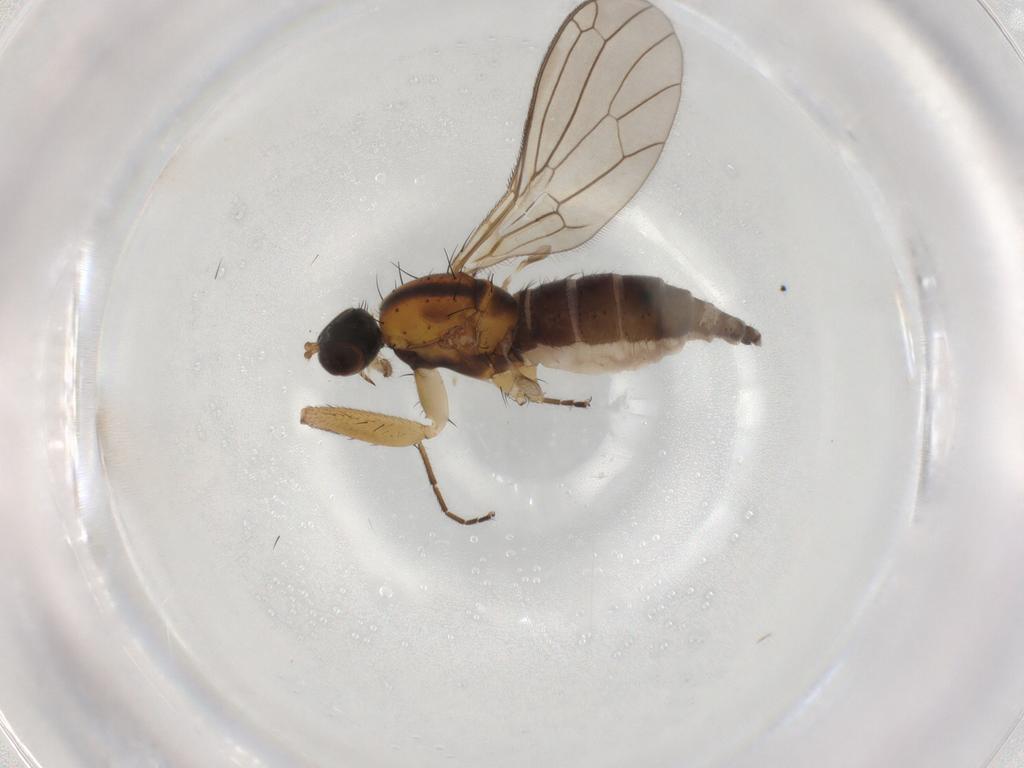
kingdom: Animalia
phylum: Arthropoda
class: Insecta
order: Diptera
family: Empididae
